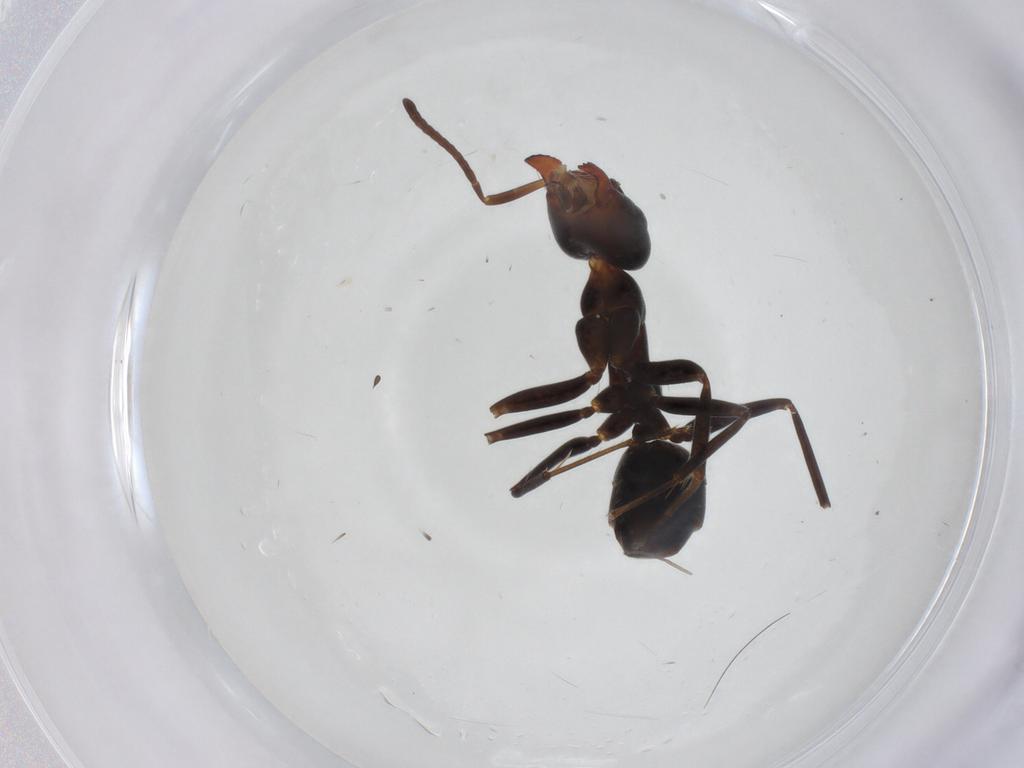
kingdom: Animalia
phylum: Arthropoda
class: Insecta
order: Hymenoptera
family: Formicidae
